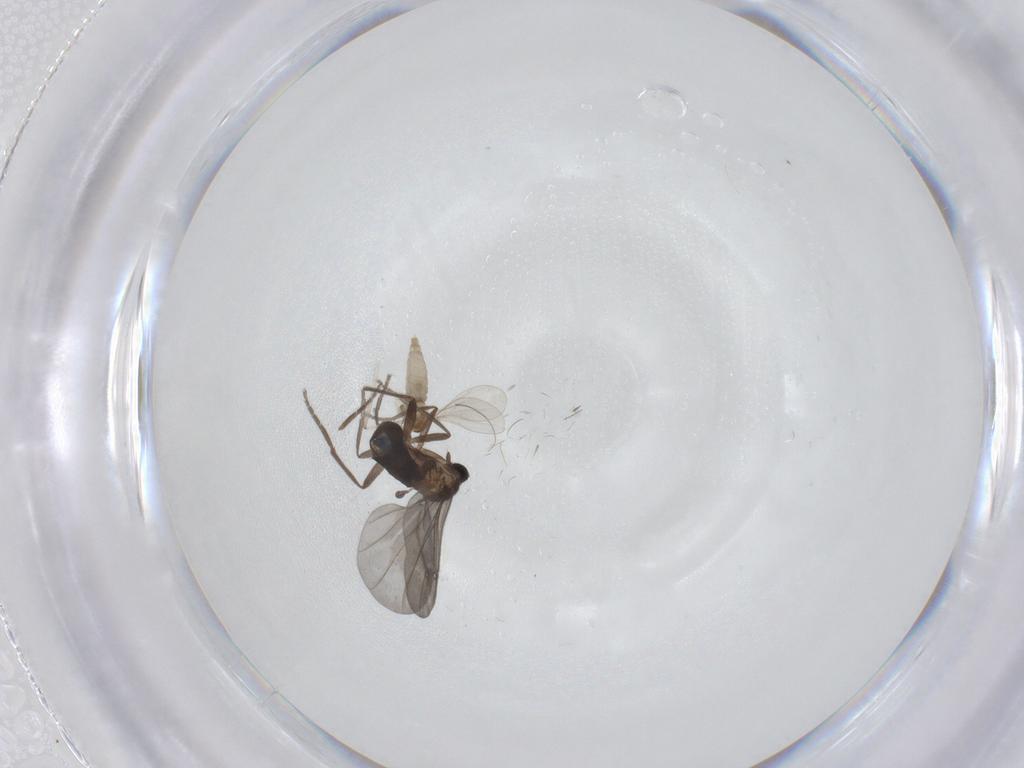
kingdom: Animalia
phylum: Arthropoda
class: Insecta
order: Diptera
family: Phoridae
